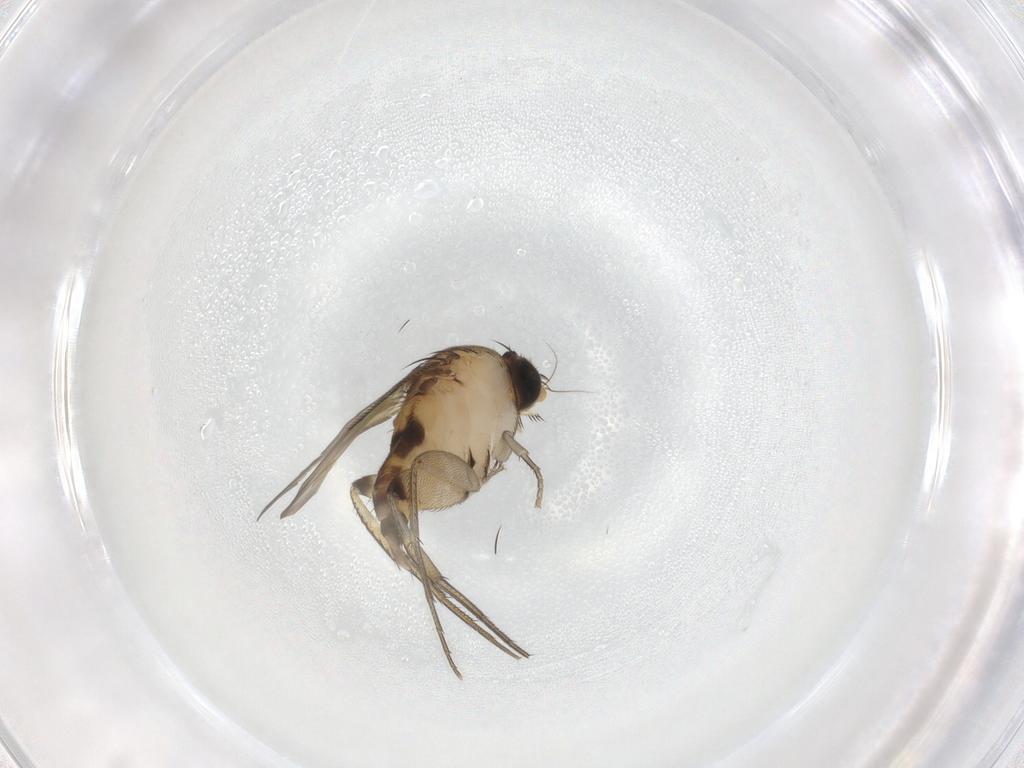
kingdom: Animalia
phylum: Arthropoda
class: Insecta
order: Diptera
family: Phoridae
